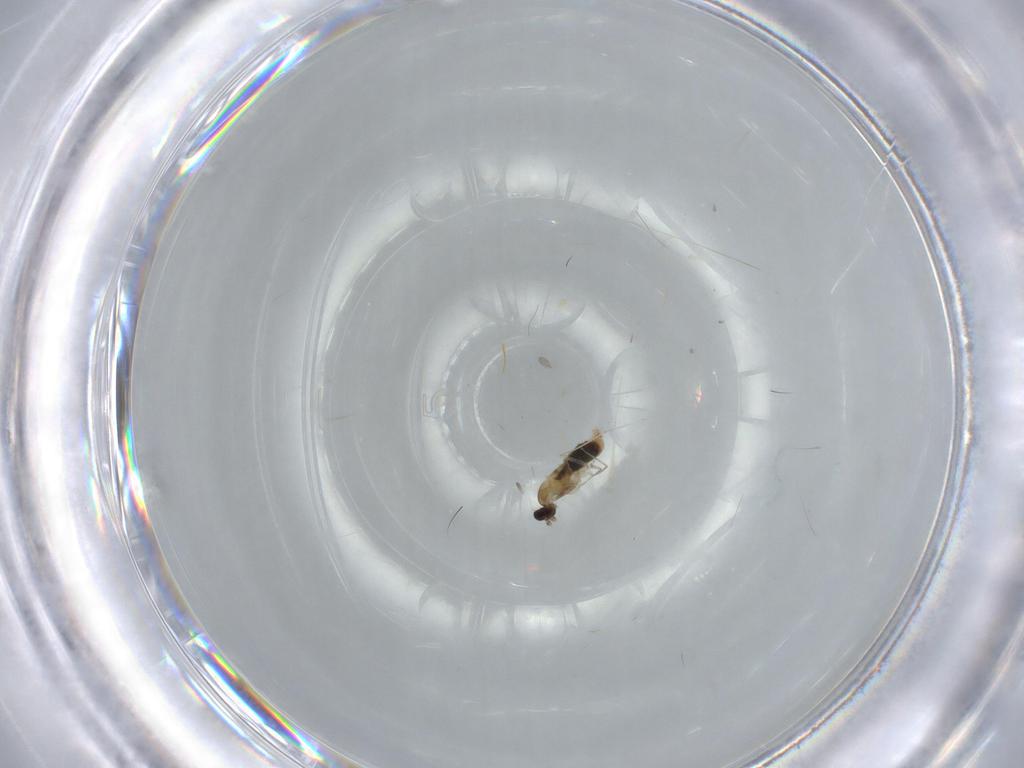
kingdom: Animalia
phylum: Arthropoda
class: Insecta
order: Diptera
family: Cecidomyiidae
